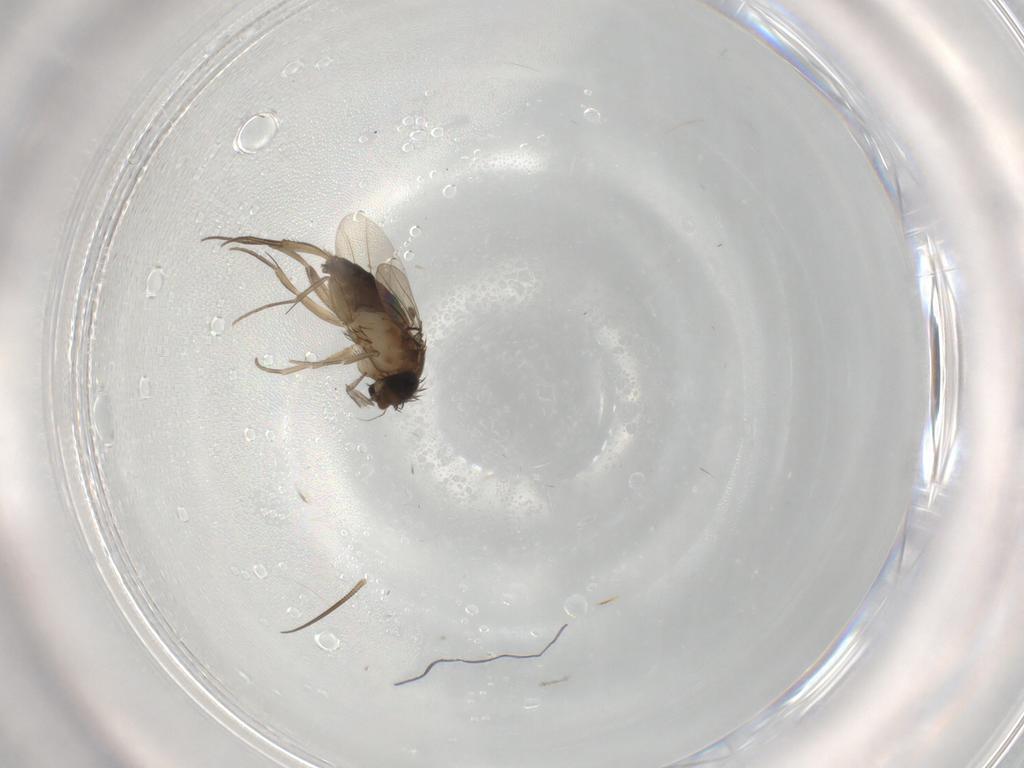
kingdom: Animalia
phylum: Arthropoda
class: Insecta
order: Diptera
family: Phoridae
